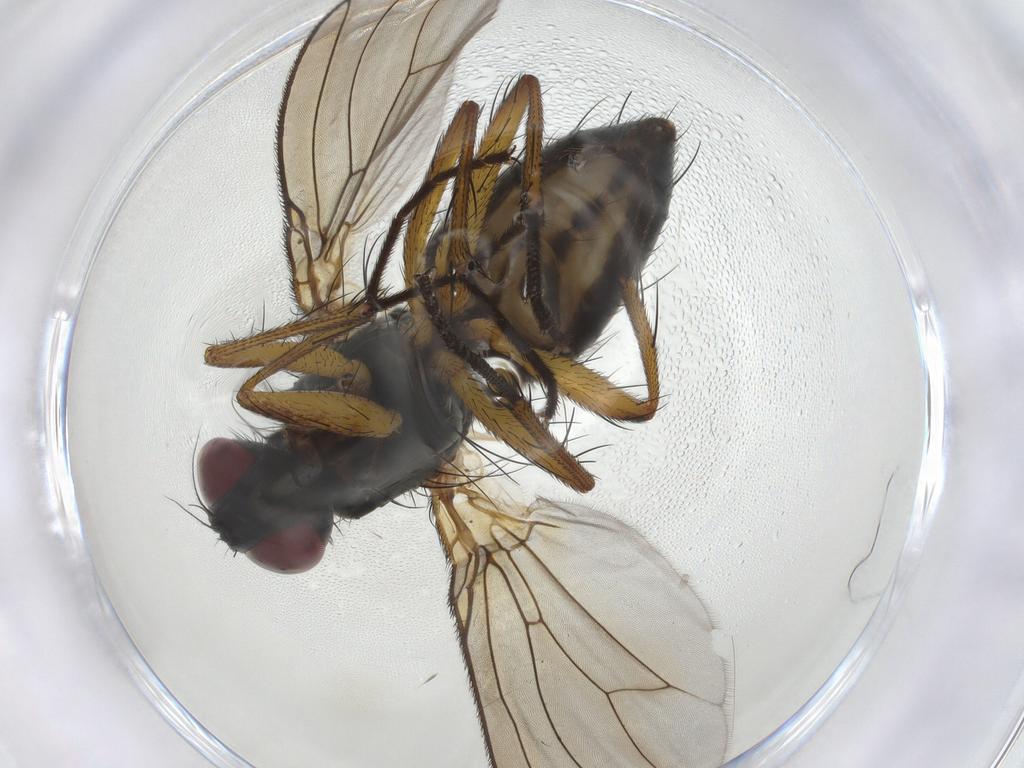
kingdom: Animalia
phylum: Arthropoda
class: Insecta
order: Diptera
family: Muscidae
